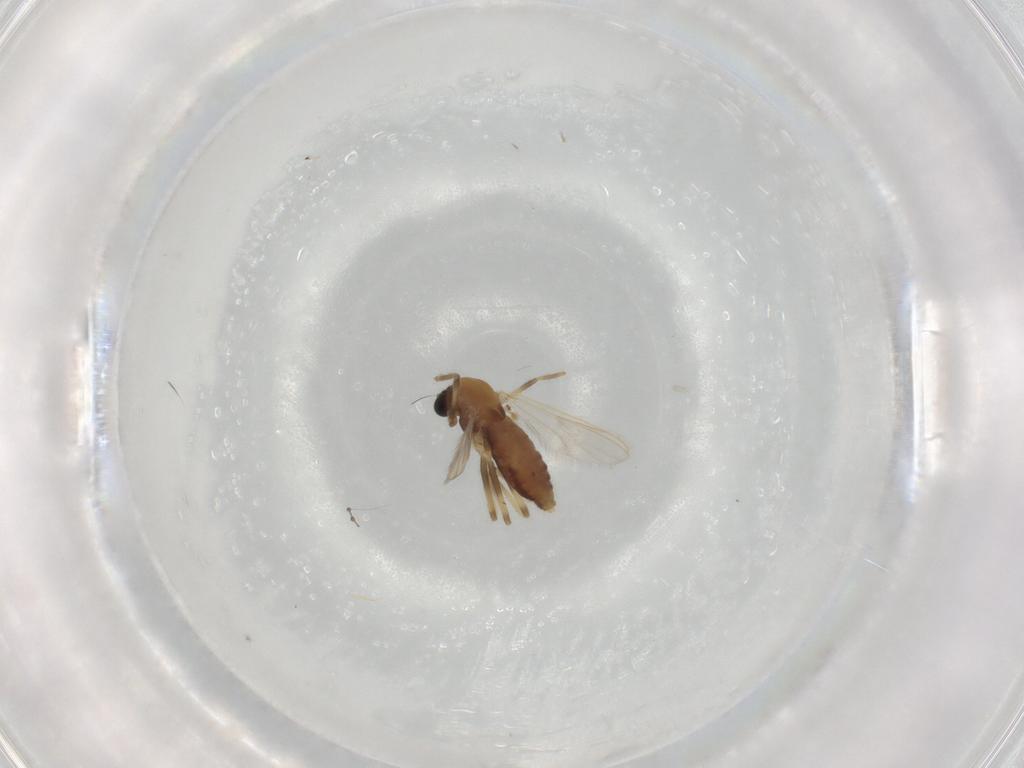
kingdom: Animalia
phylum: Arthropoda
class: Insecta
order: Diptera
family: Chironomidae
